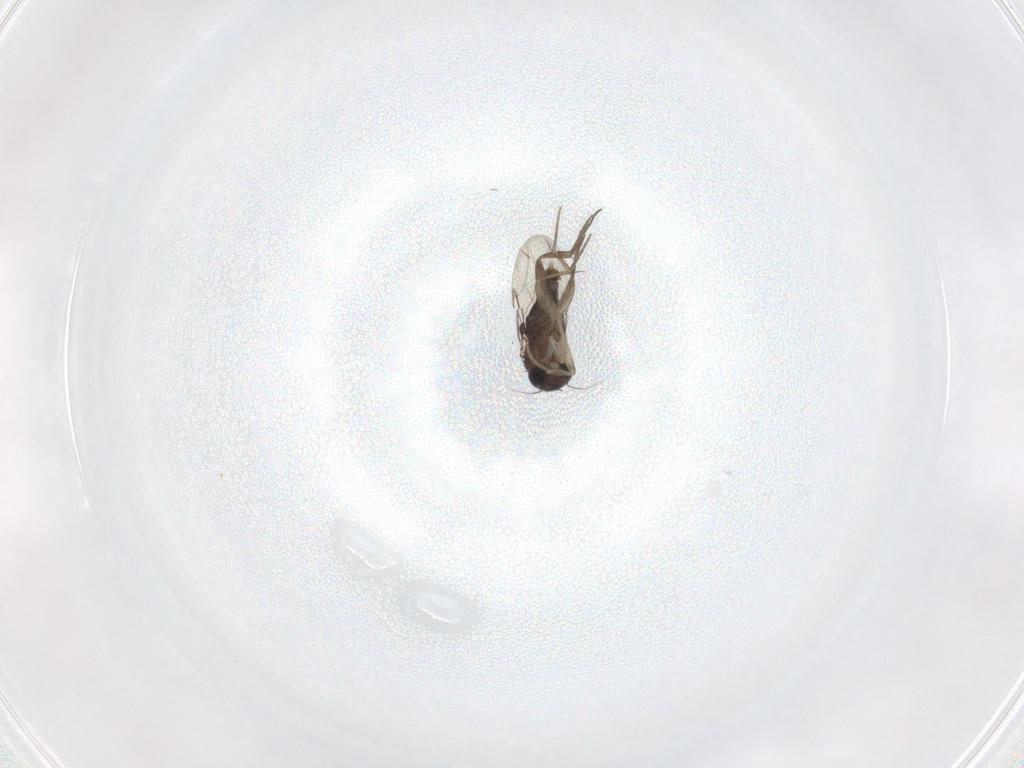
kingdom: Animalia
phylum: Arthropoda
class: Insecta
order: Diptera
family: Phoridae
